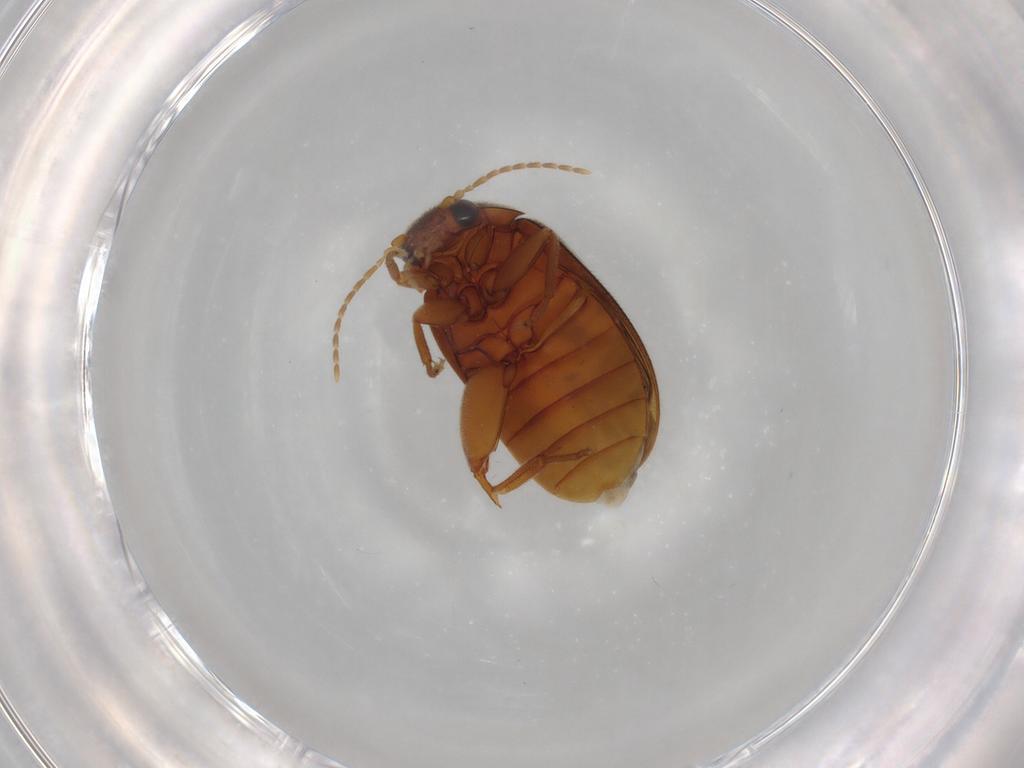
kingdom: Animalia
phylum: Arthropoda
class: Insecta
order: Coleoptera
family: Scirtidae
